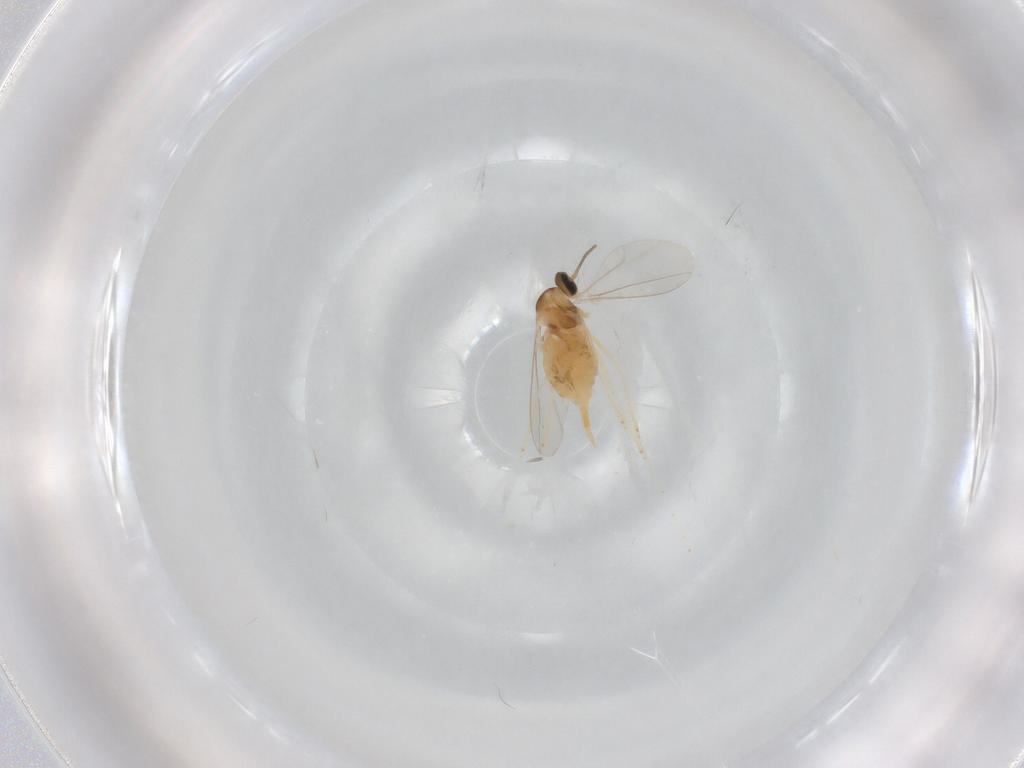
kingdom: Animalia
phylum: Arthropoda
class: Insecta
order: Diptera
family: Cecidomyiidae
